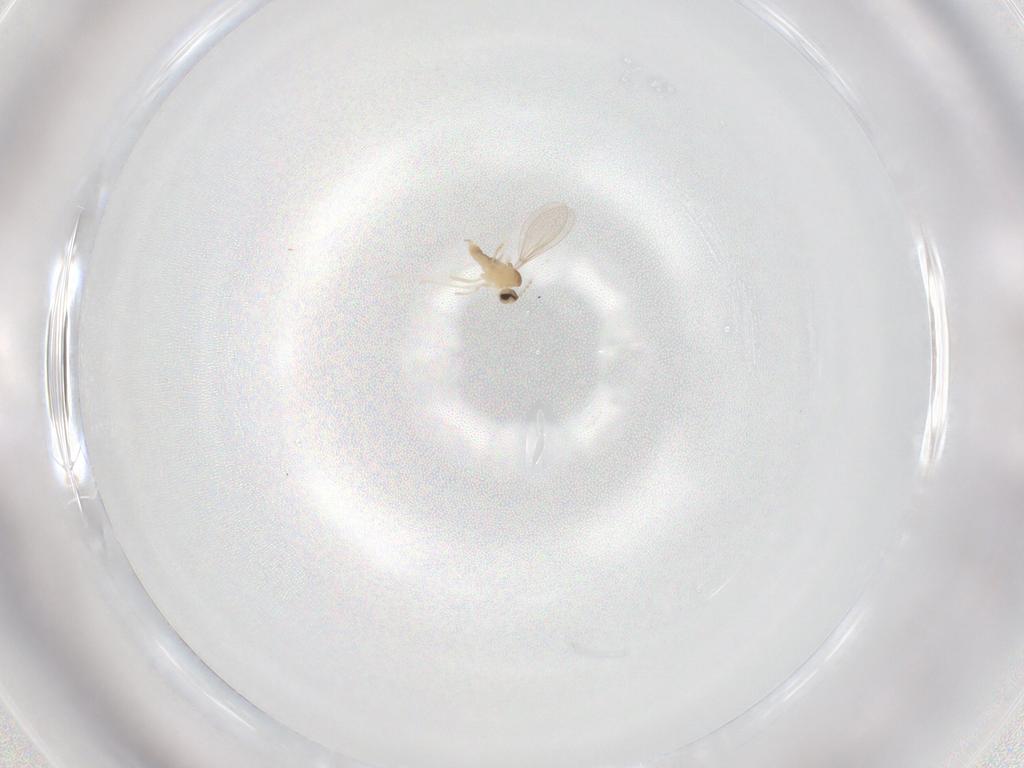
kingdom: Animalia
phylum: Arthropoda
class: Insecta
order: Diptera
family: Cecidomyiidae
